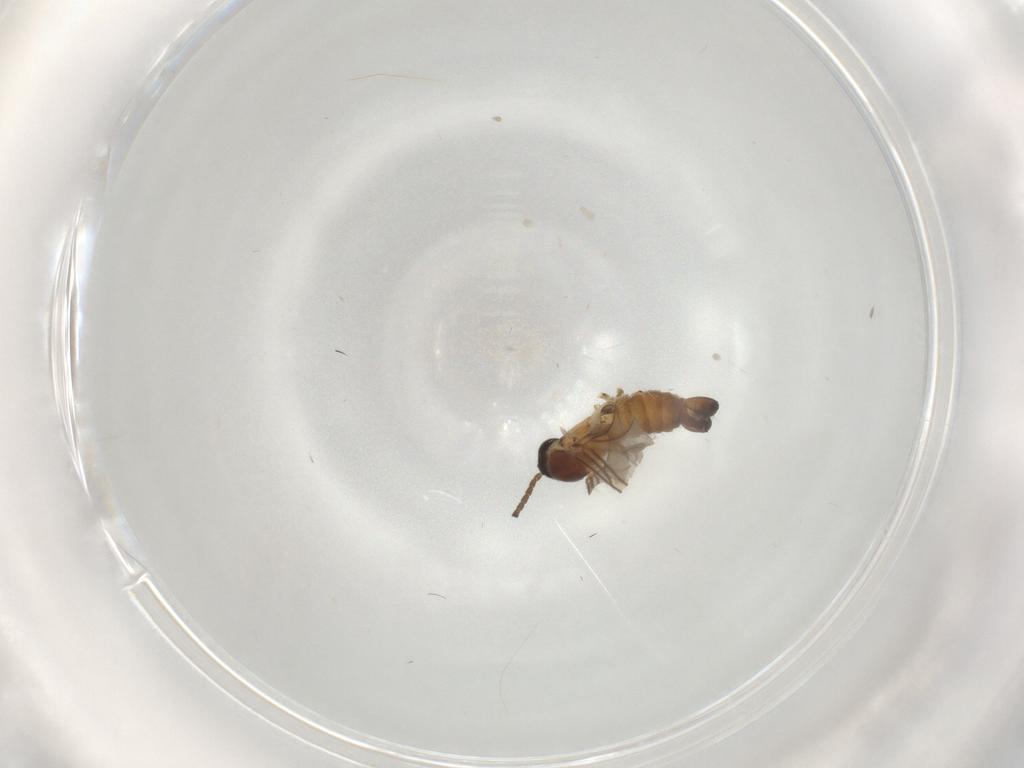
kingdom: Animalia
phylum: Arthropoda
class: Insecta
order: Diptera
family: Sciaridae
